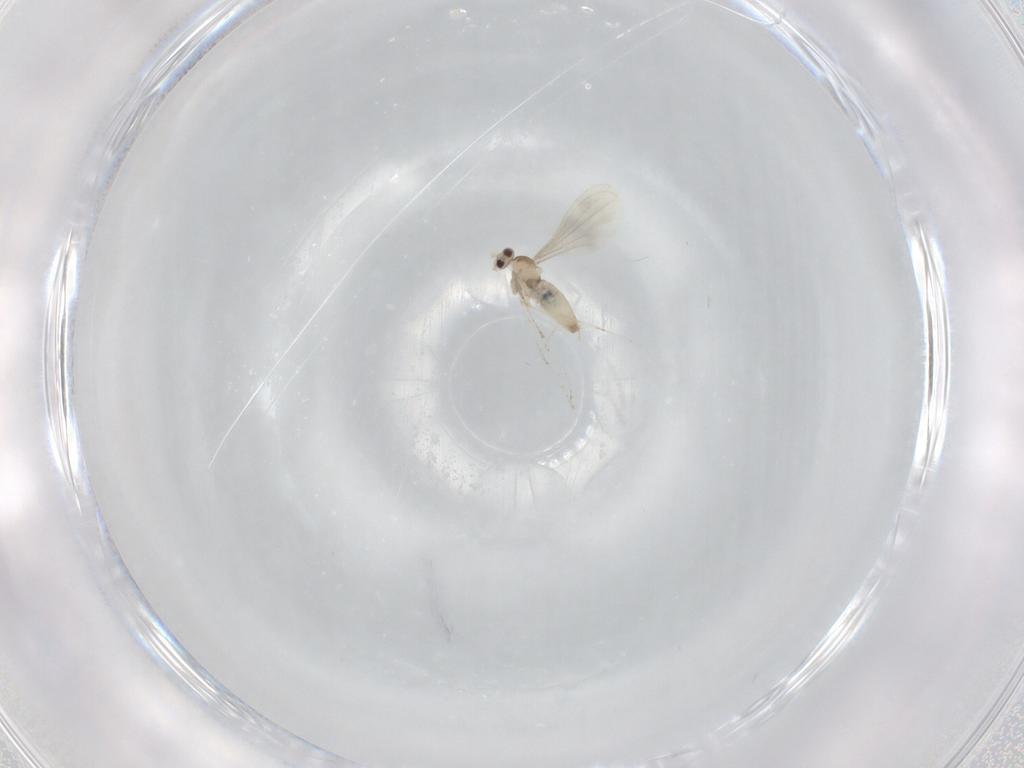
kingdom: Animalia
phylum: Arthropoda
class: Insecta
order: Diptera
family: Cecidomyiidae
